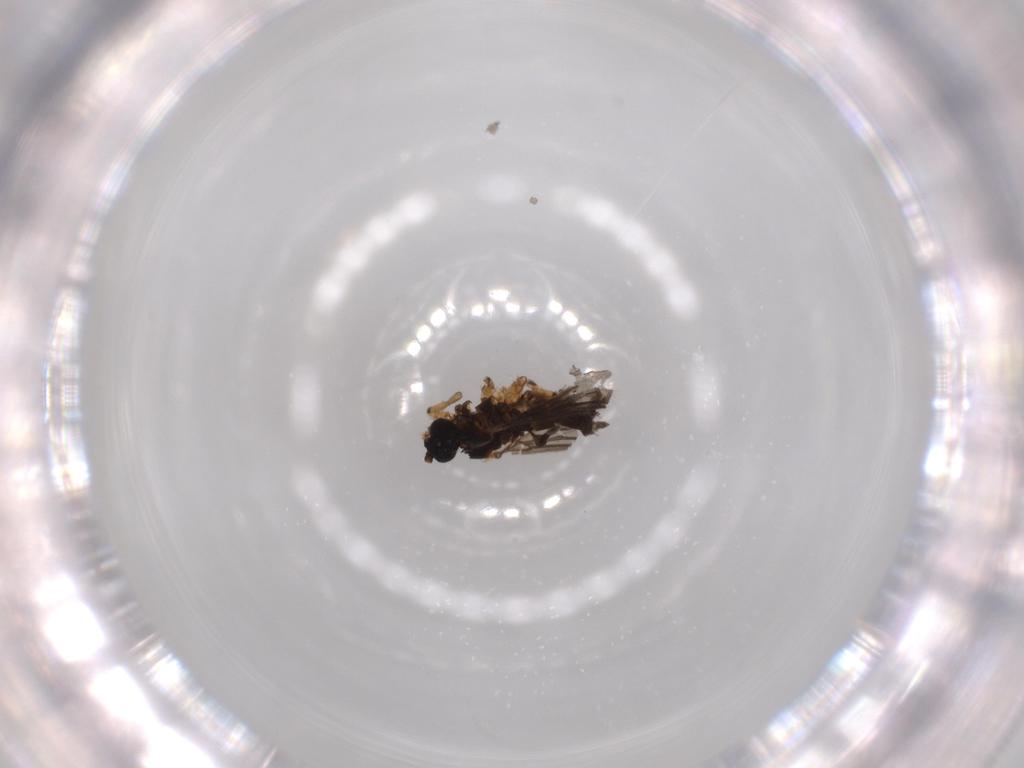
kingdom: Animalia
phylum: Arthropoda
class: Insecta
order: Diptera
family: Sciaridae
